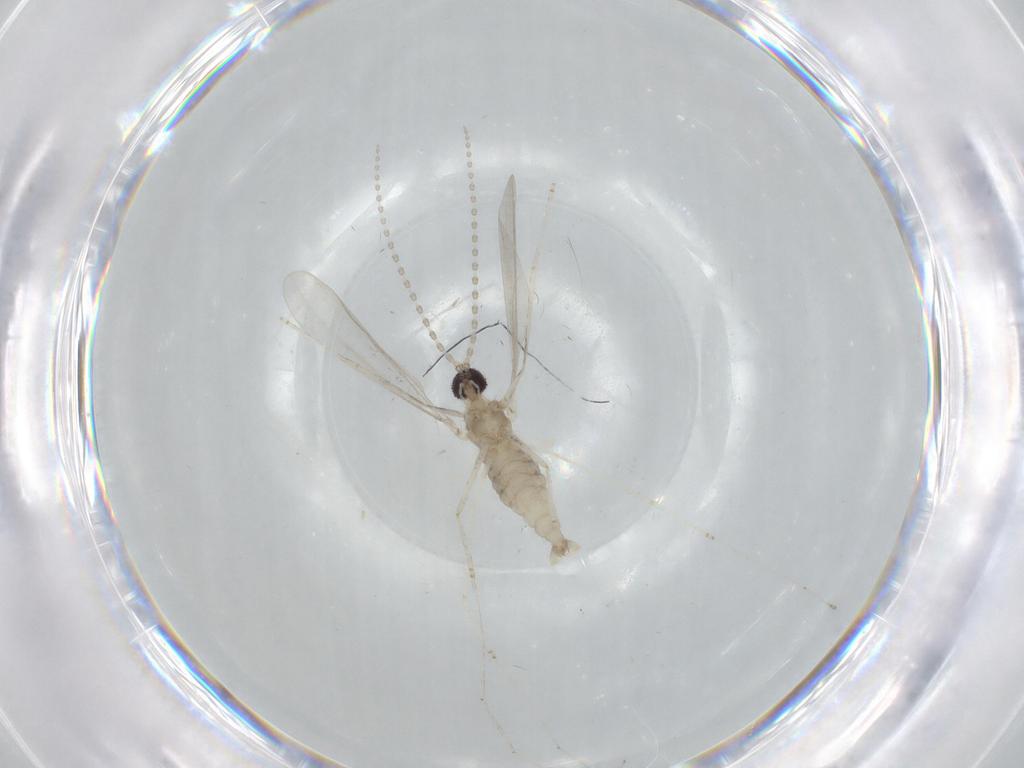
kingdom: Animalia
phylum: Arthropoda
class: Insecta
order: Diptera
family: Cecidomyiidae
